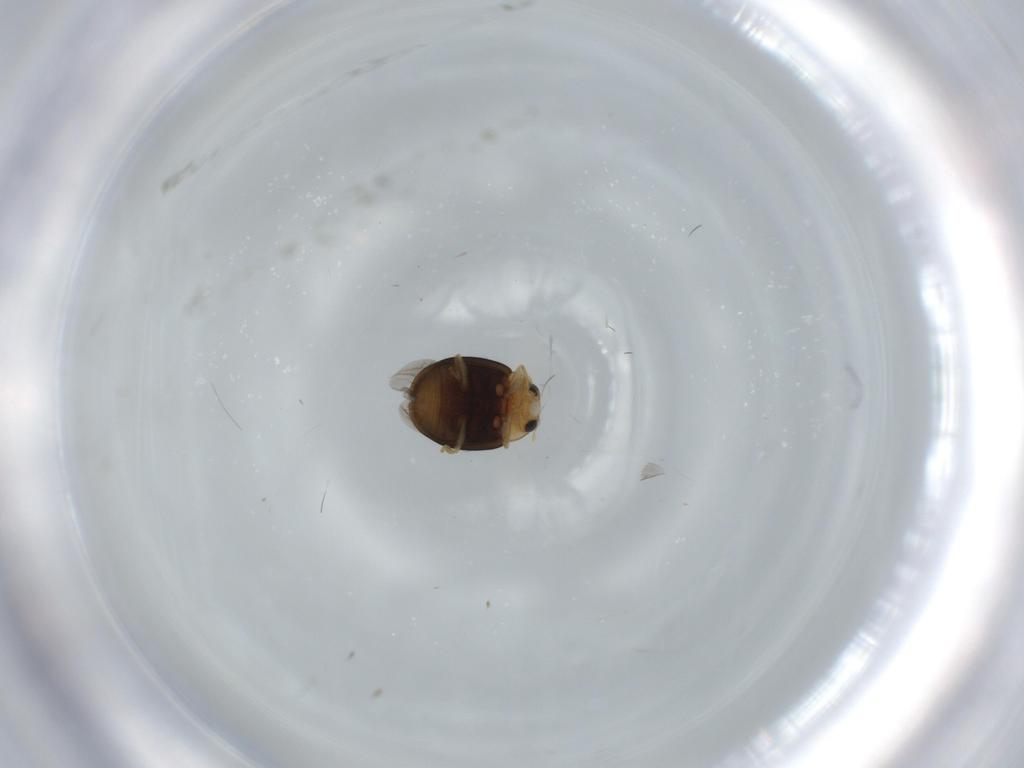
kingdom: Animalia
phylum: Arthropoda
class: Insecta
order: Coleoptera
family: Coccinellidae
